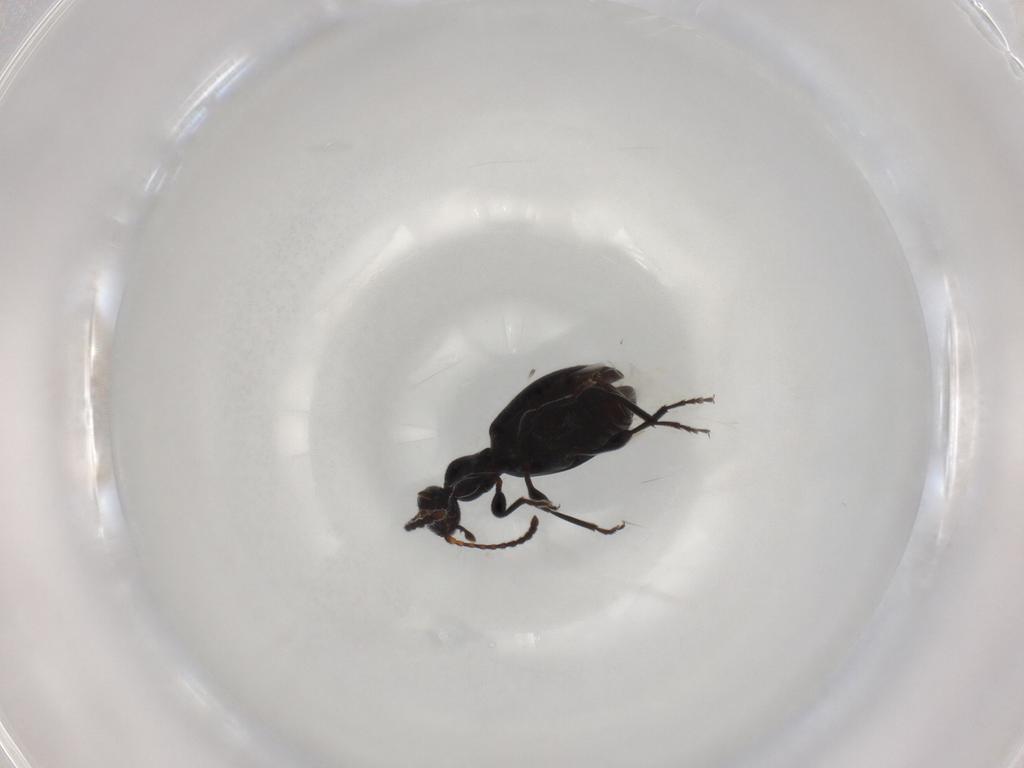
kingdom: Animalia
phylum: Arthropoda
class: Insecta
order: Coleoptera
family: Anthicidae
